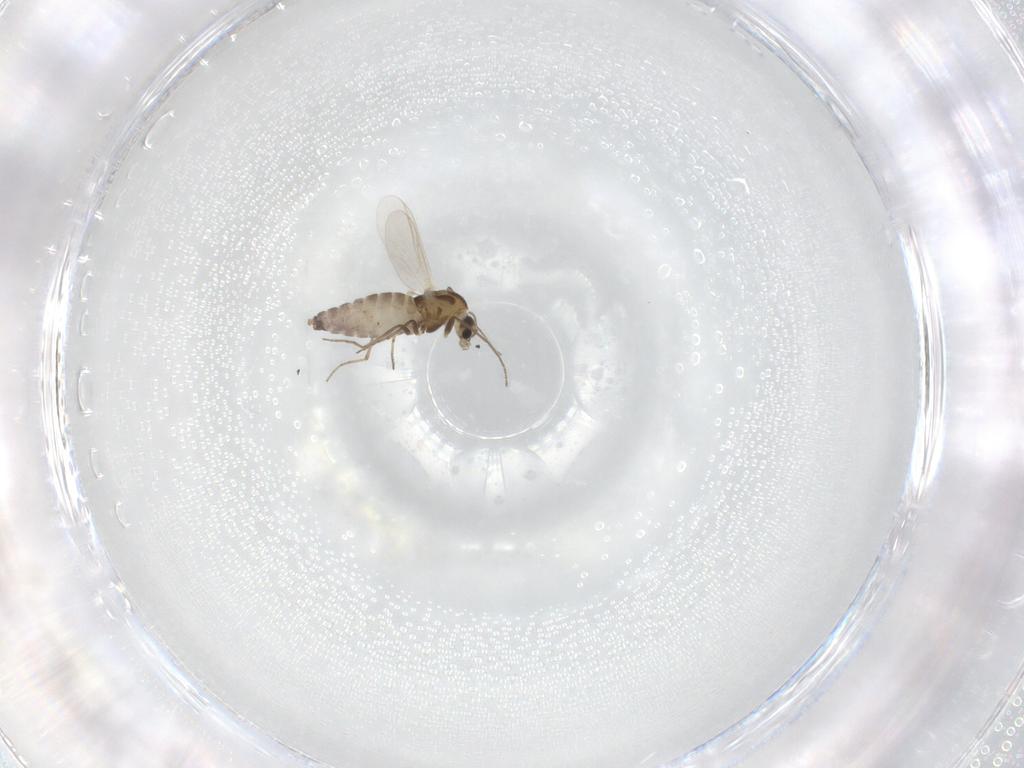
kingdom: Animalia
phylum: Arthropoda
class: Insecta
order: Diptera
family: Chironomidae
